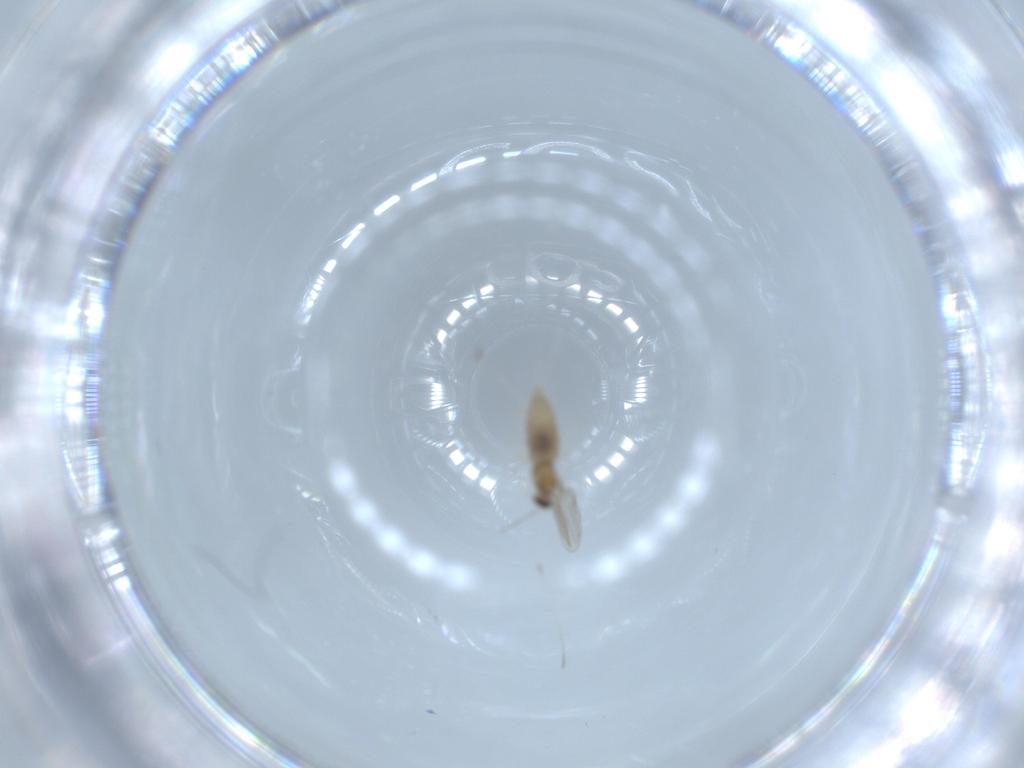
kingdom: Animalia
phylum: Arthropoda
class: Insecta
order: Diptera
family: Cecidomyiidae
